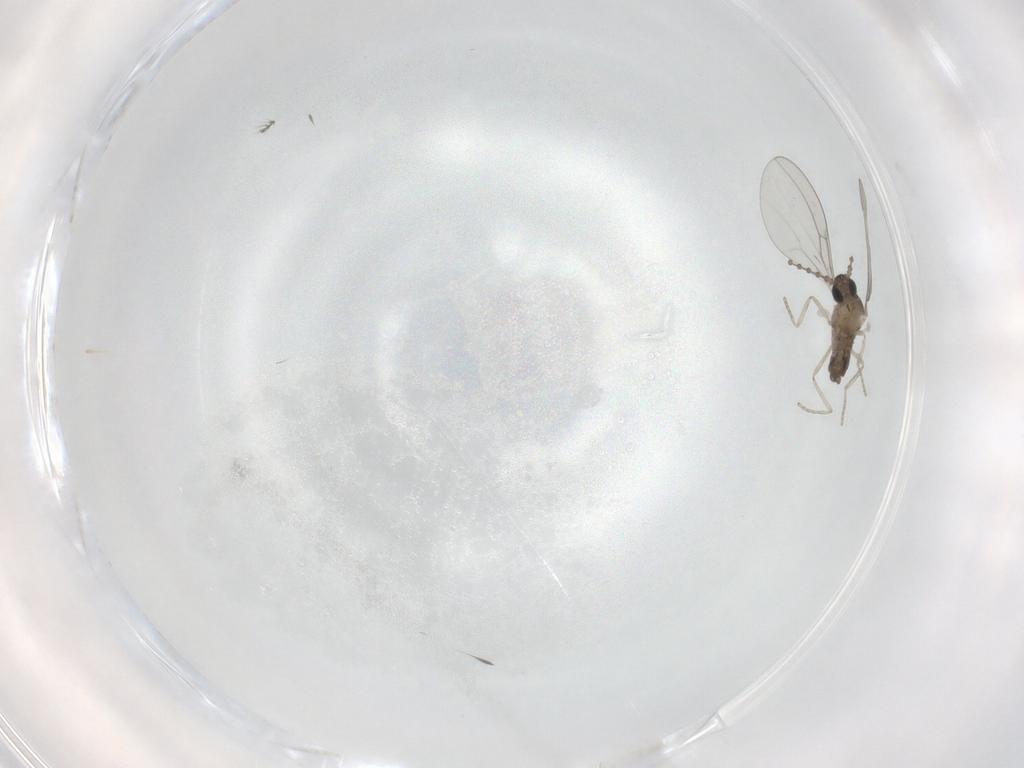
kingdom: Animalia
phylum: Arthropoda
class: Insecta
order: Diptera
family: Cecidomyiidae
